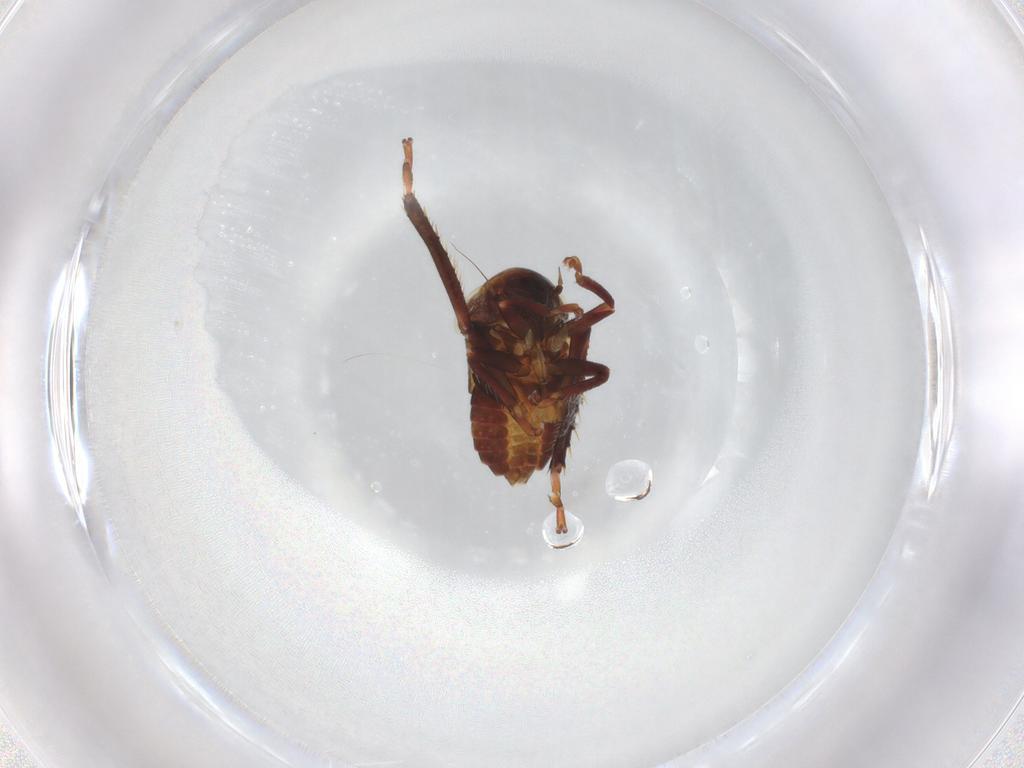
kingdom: Animalia
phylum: Arthropoda
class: Insecta
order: Hemiptera
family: Cicadellidae
